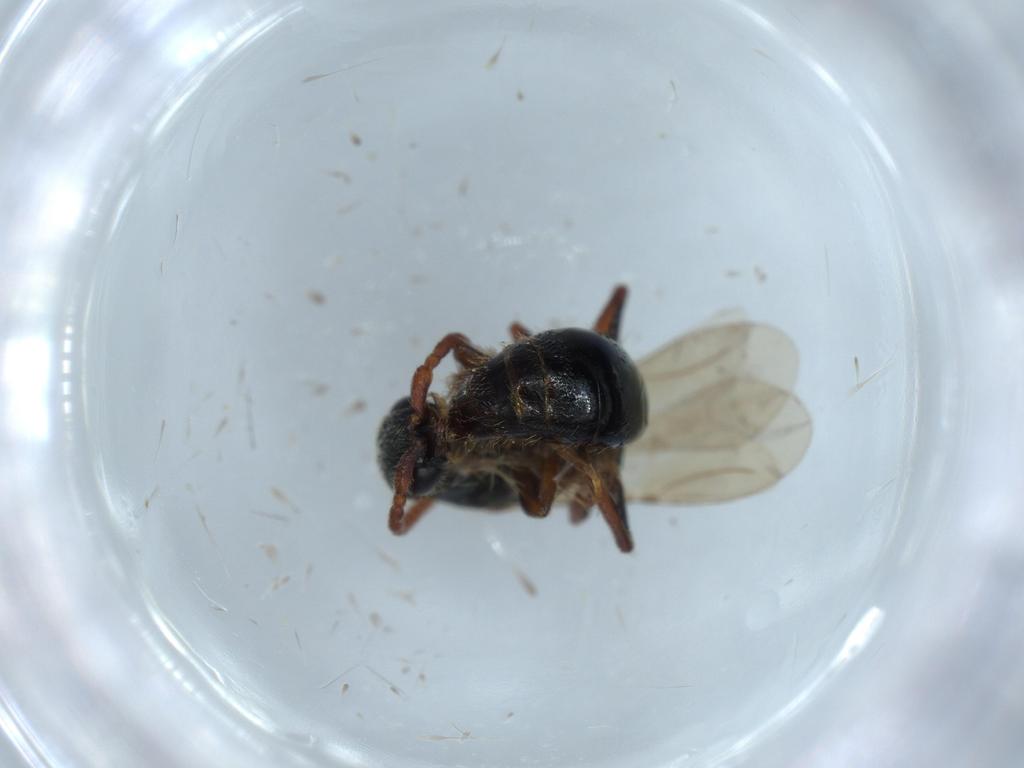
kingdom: Animalia
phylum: Arthropoda
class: Insecta
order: Hymenoptera
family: Bethylidae
